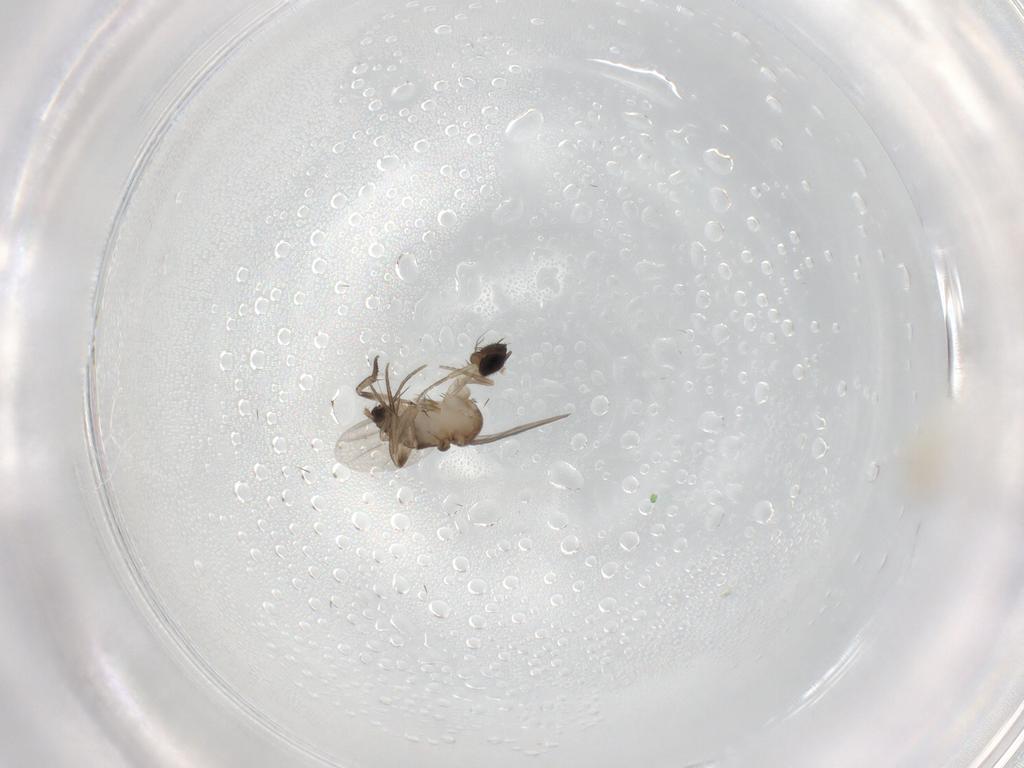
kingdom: Animalia
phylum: Arthropoda
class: Insecta
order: Diptera
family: Phoridae
